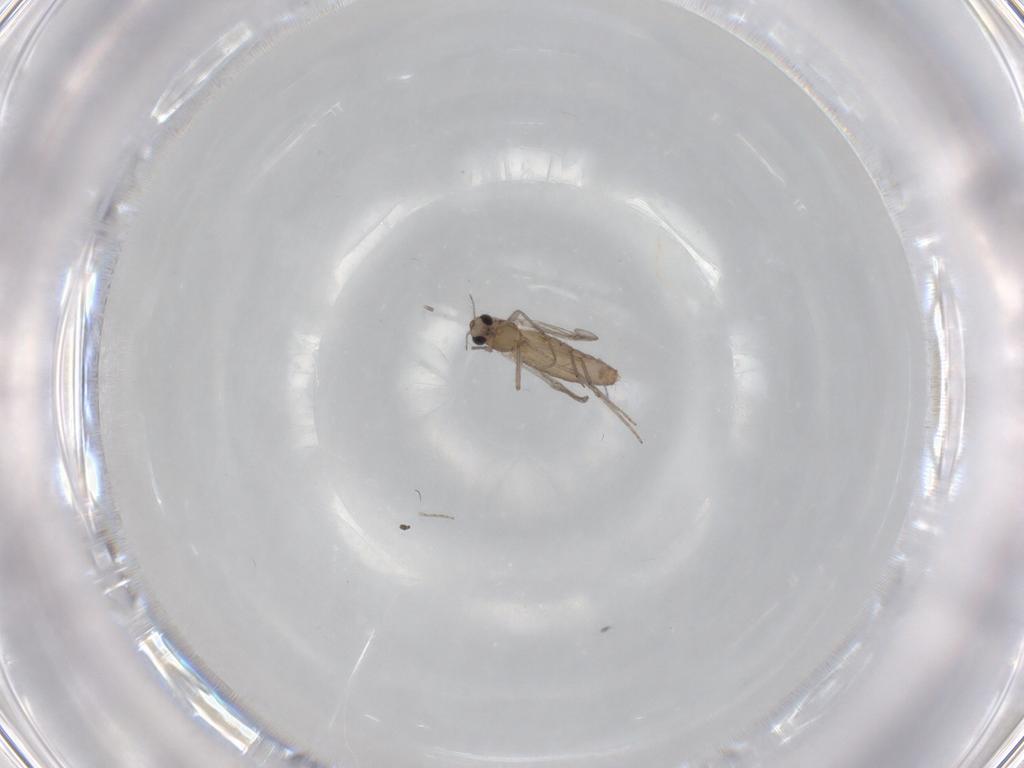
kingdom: Animalia
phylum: Arthropoda
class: Insecta
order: Diptera
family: Chironomidae
